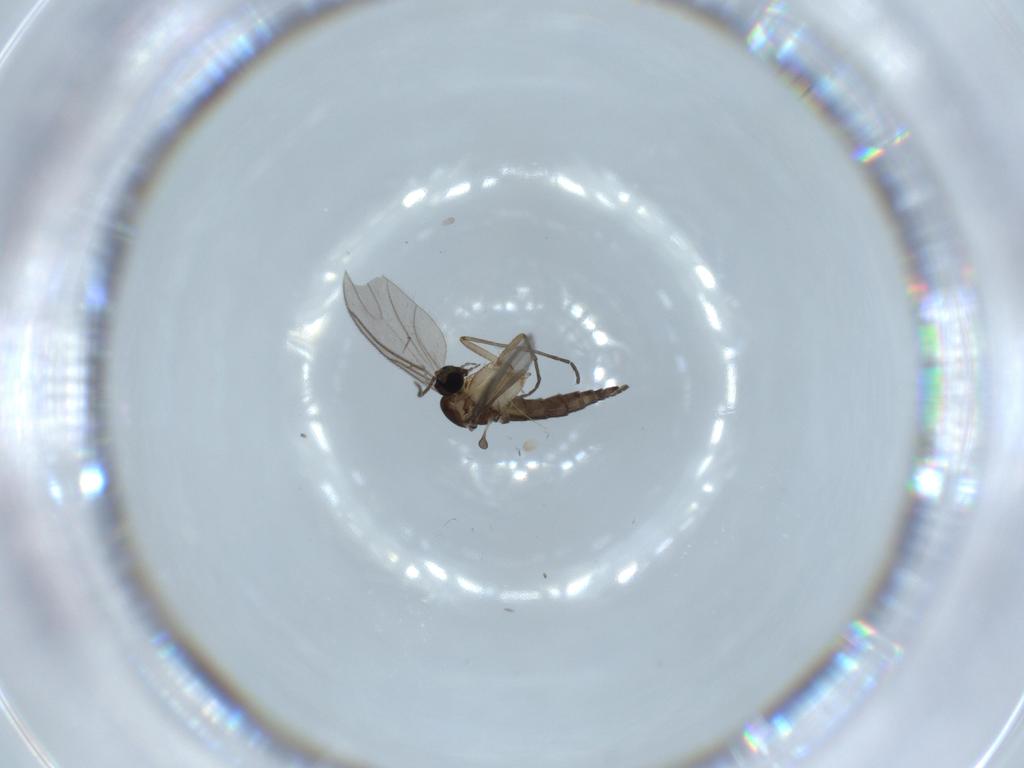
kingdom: Animalia
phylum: Arthropoda
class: Insecta
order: Diptera
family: Sciaridae
